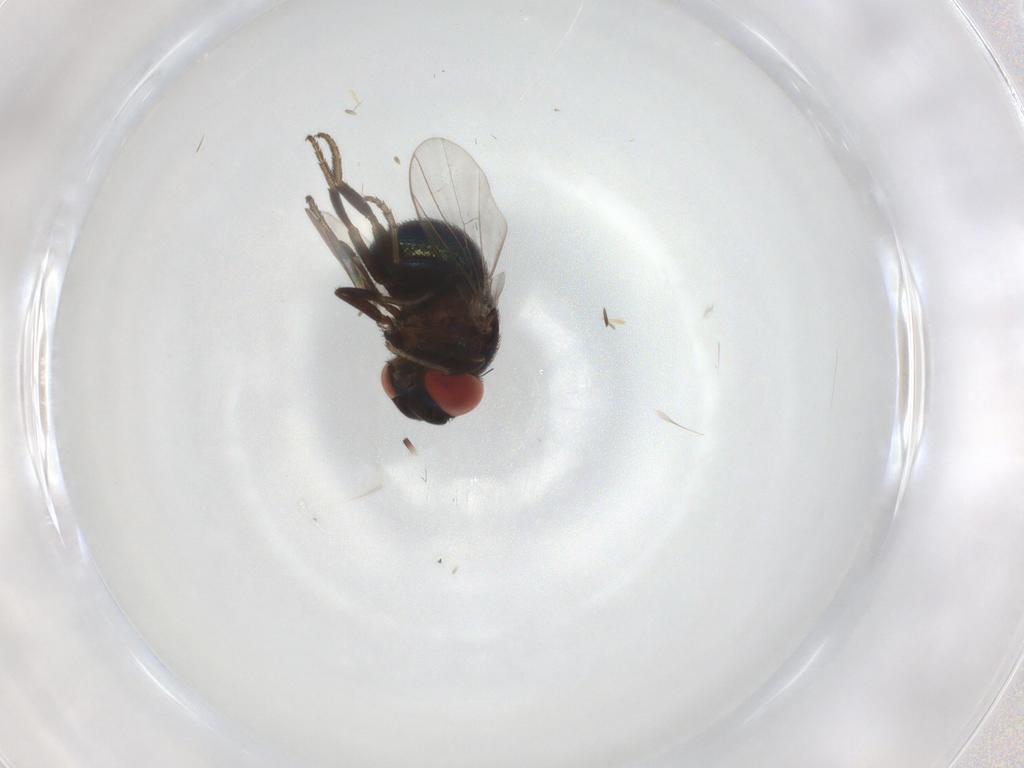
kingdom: Animalia
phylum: Arthropoda
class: Insecta
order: Diptera
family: Cryptochetidae
